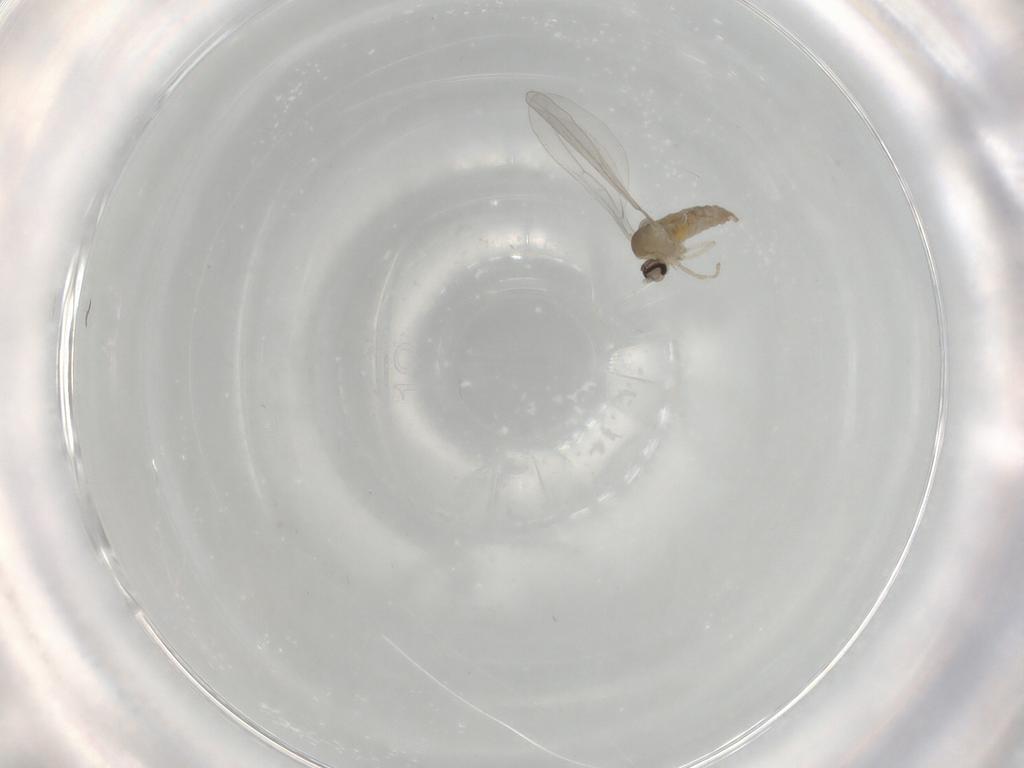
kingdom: Animalia
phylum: Arthropoda
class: Insecta
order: Diptera
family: Cecidomyiidae
